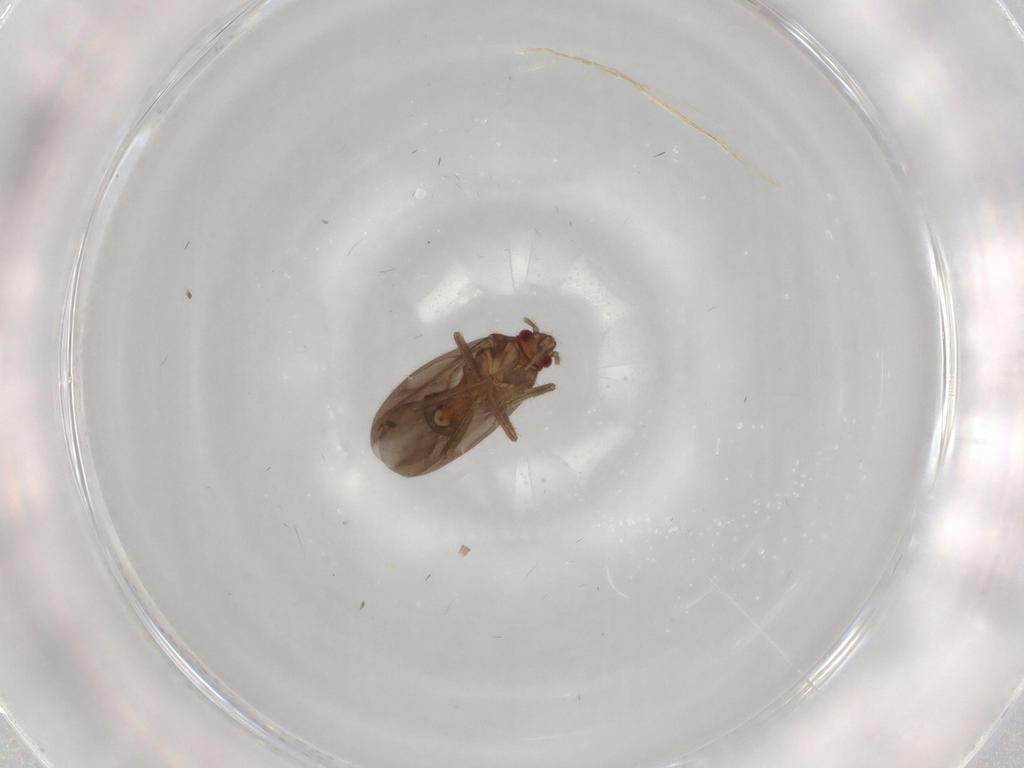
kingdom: Animalia
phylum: Arthropoda
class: Insecta
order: Hemiptera
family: Ceratocombidae
